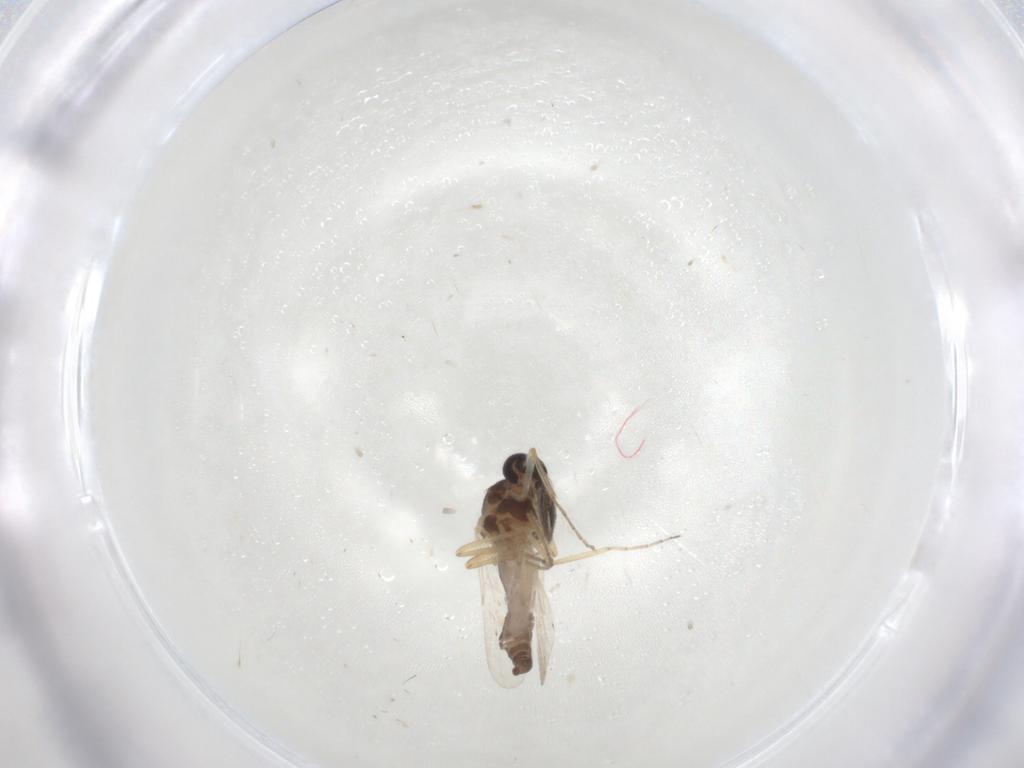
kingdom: Animalia
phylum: Arthropoda
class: Insecta
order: Diptera
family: Ceratopogonidae
